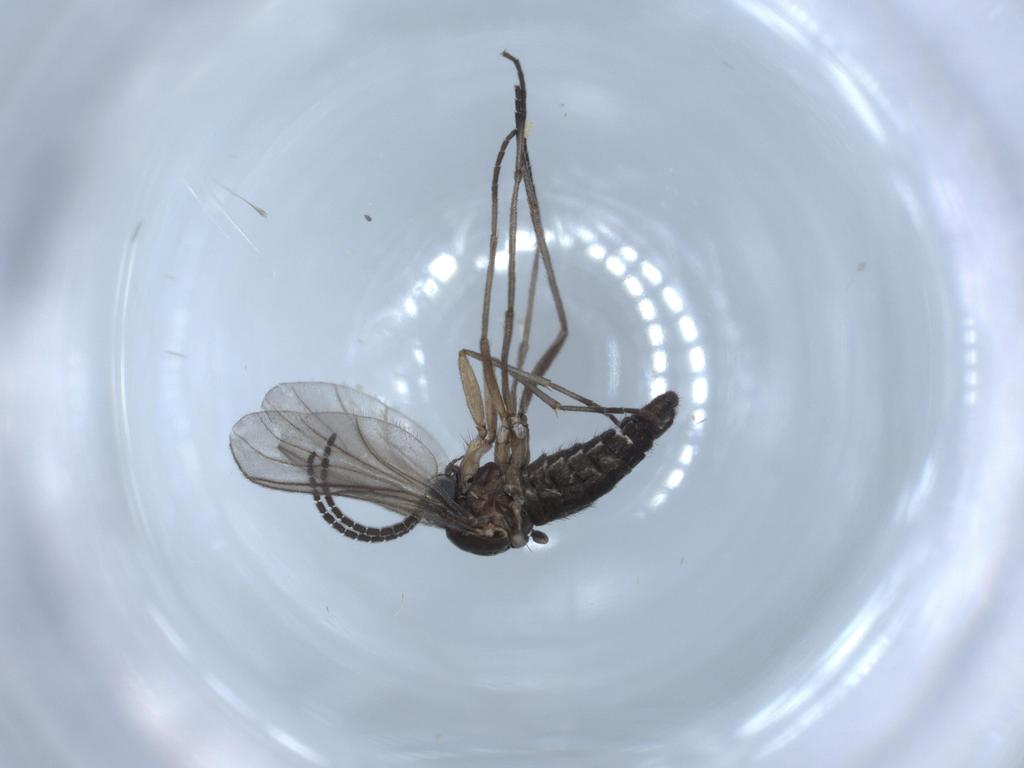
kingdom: Animalia
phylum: Arthropoda
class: Insecta
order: Diptera
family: Sciaridae
